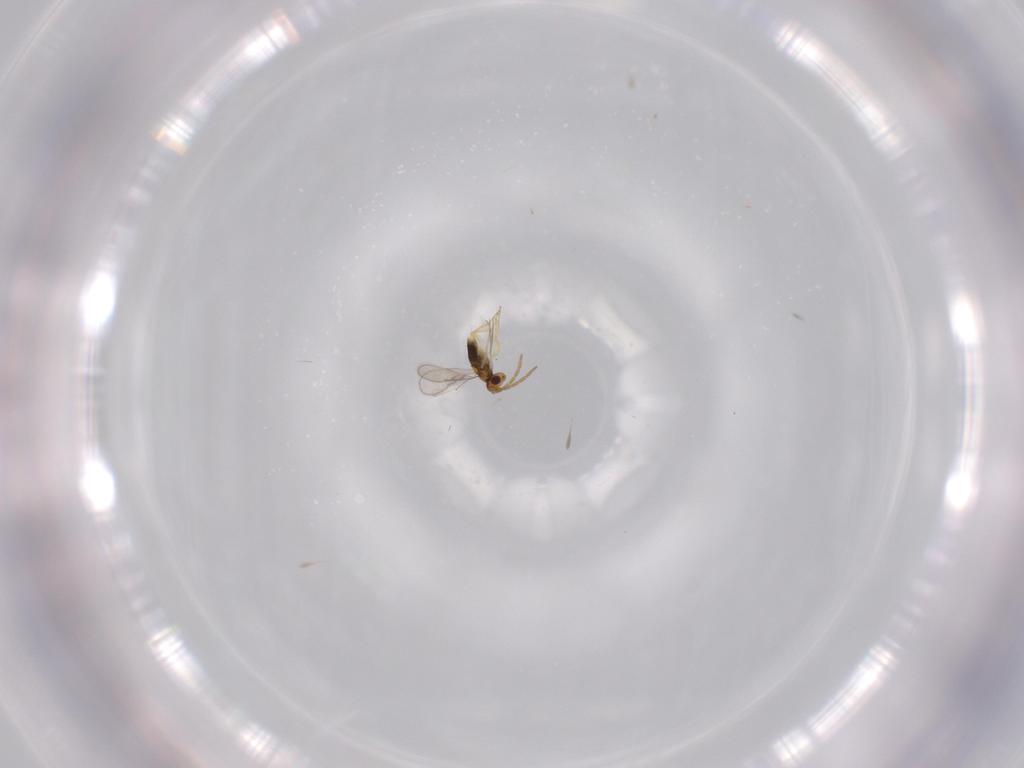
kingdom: Animalia
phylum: Arthropoda
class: Insecta
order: Hymenoptera
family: Aphelinidae
